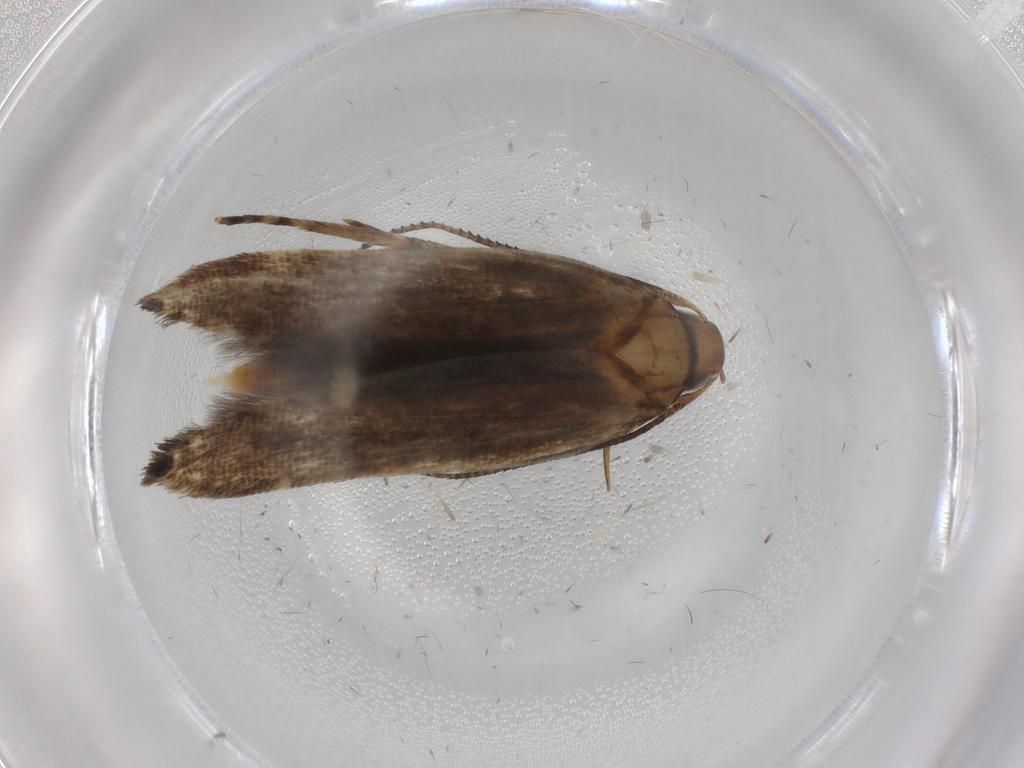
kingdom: Animalia
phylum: Arthropoda
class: Insecta
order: Lepidoptera
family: Cosmopterigidae
